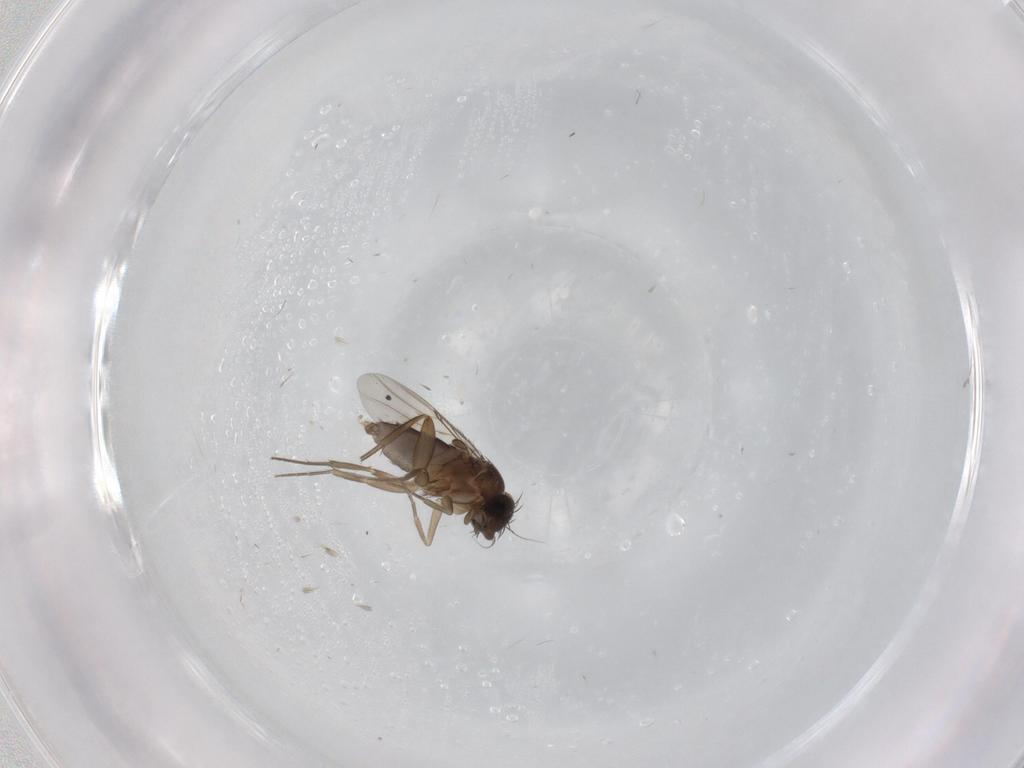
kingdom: Animalia
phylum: Arthropoda
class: Insecta
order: Diptera
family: Phoridae
